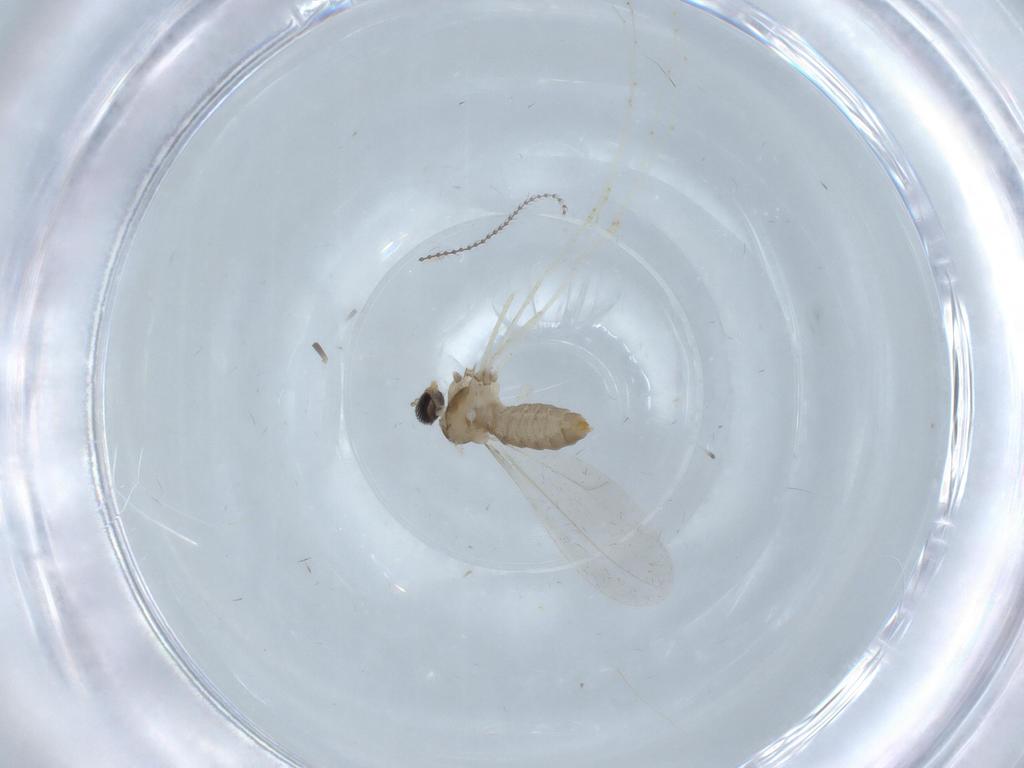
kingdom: Animalia
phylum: Arthropoda
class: Insecta
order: Diptera
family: Cecidomyiidae
